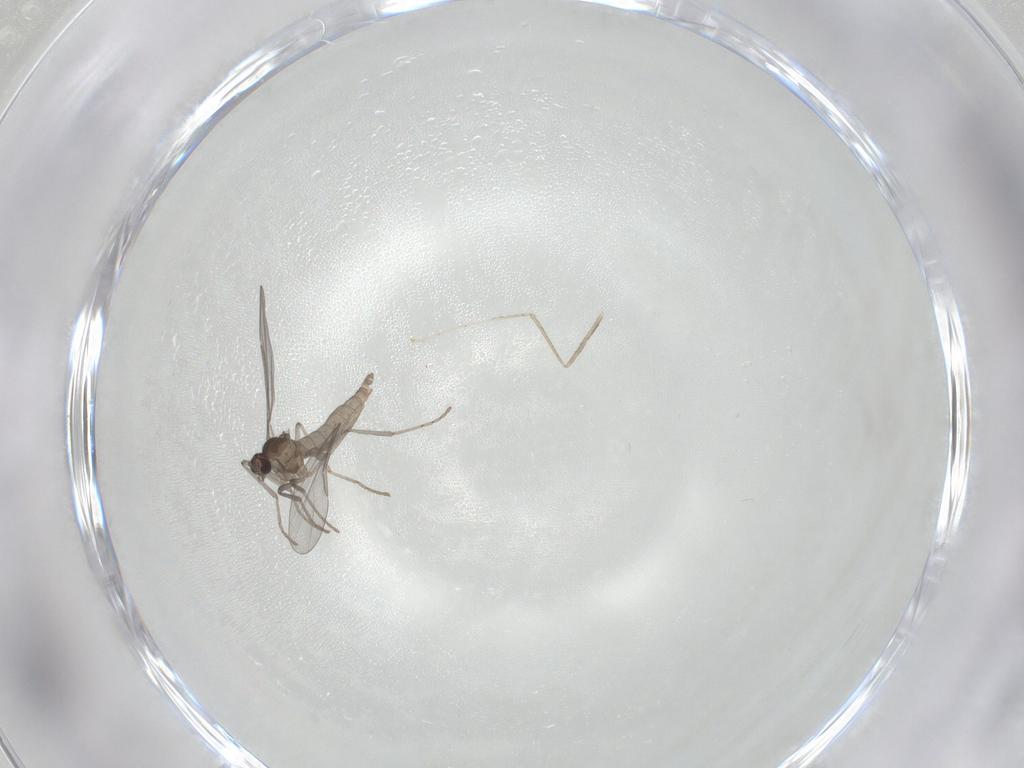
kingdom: Animalia
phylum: Arthropoda
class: Insecta
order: Diptera
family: Cecidomyiidae
